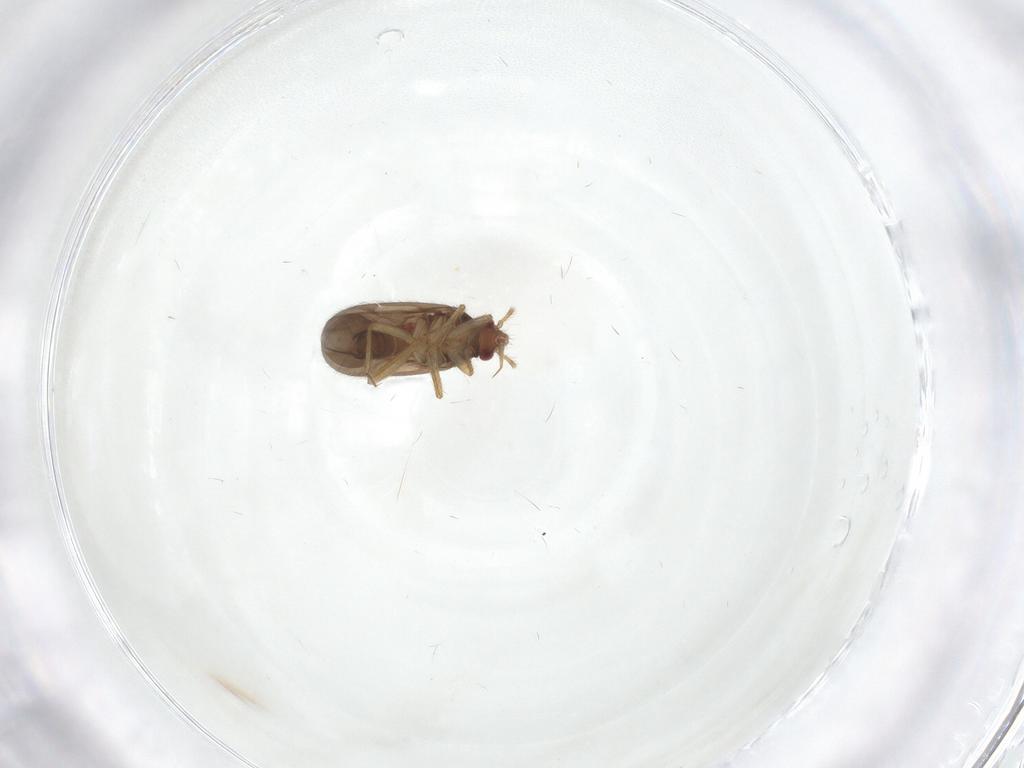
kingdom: Animalia
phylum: Arthropoda
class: Insecta
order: Hemiptera
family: Ceratocombidae
